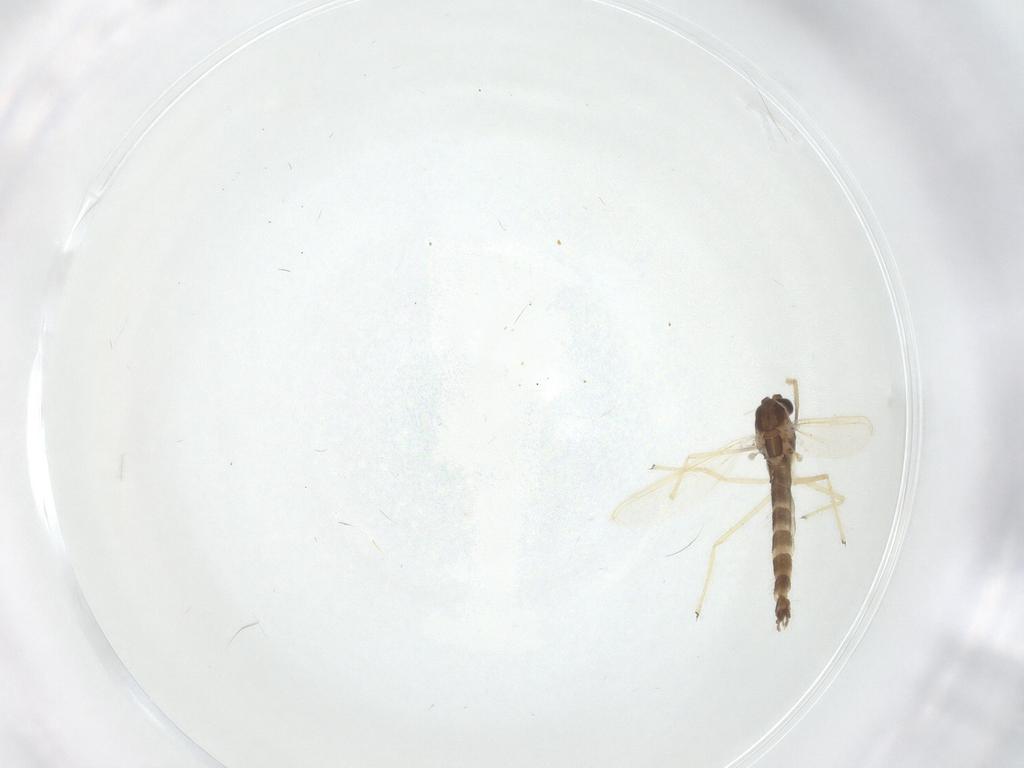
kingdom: Animalia
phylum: Arthropoda
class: Insecta
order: Diptera
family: Chironomidae
